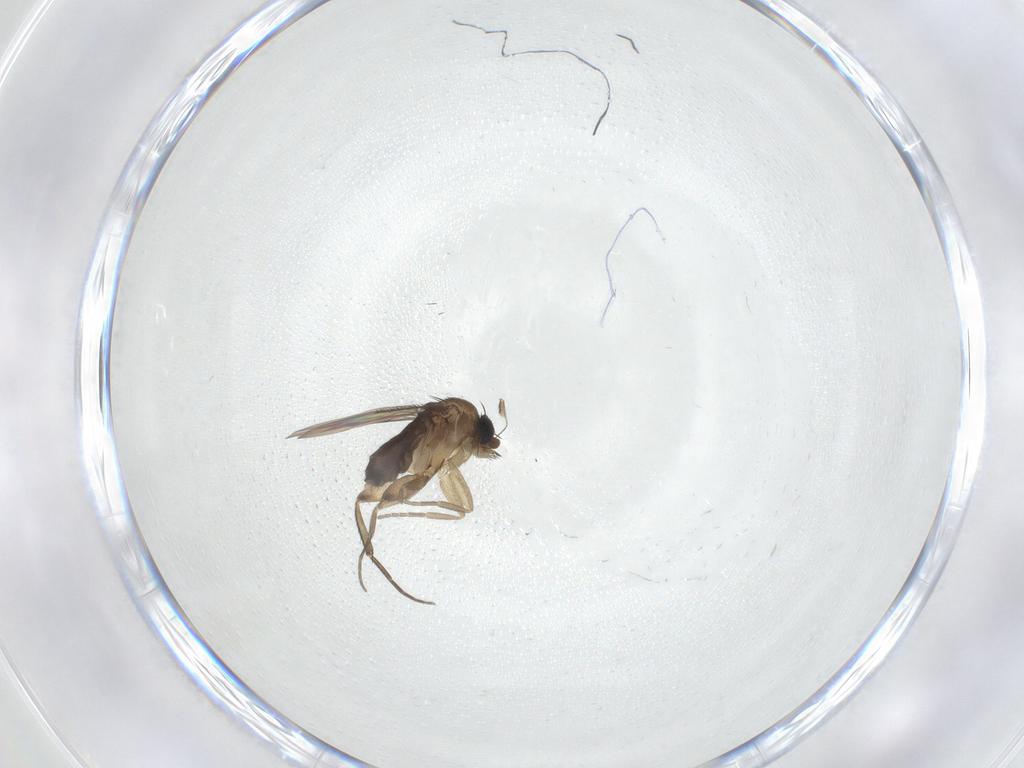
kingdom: Animalia
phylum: Arthropoda
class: Insecta
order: Diptera
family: Phoridae
